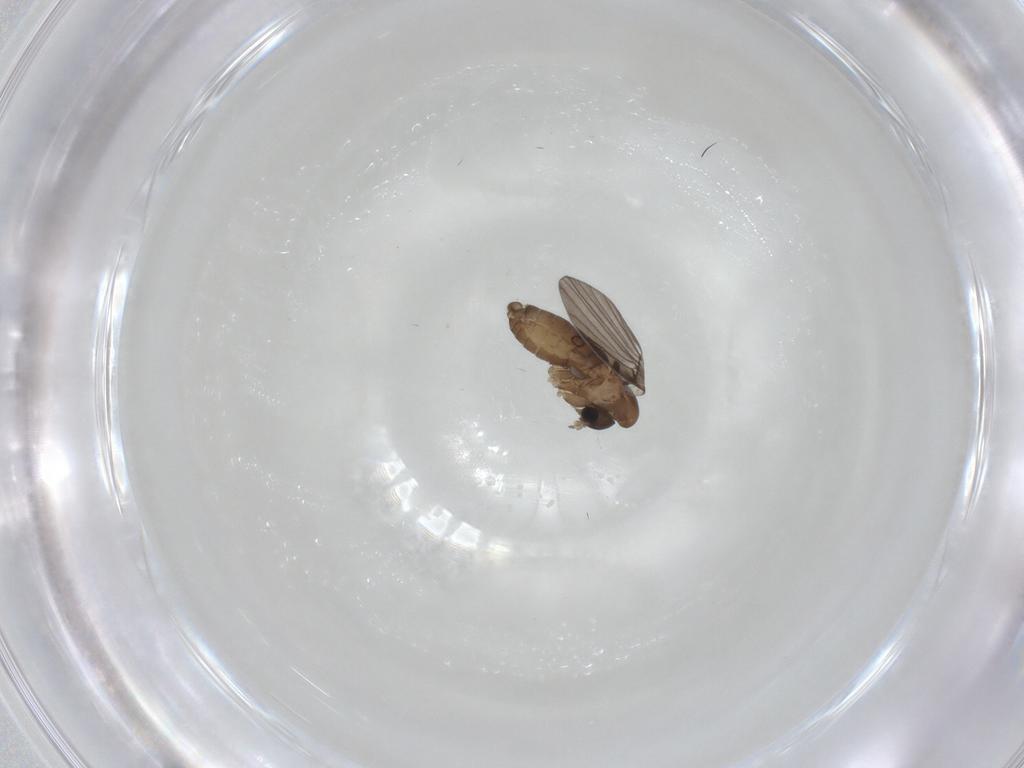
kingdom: Animalia
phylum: Arthropoda
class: Insecta
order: Diptera
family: Psychodidae
